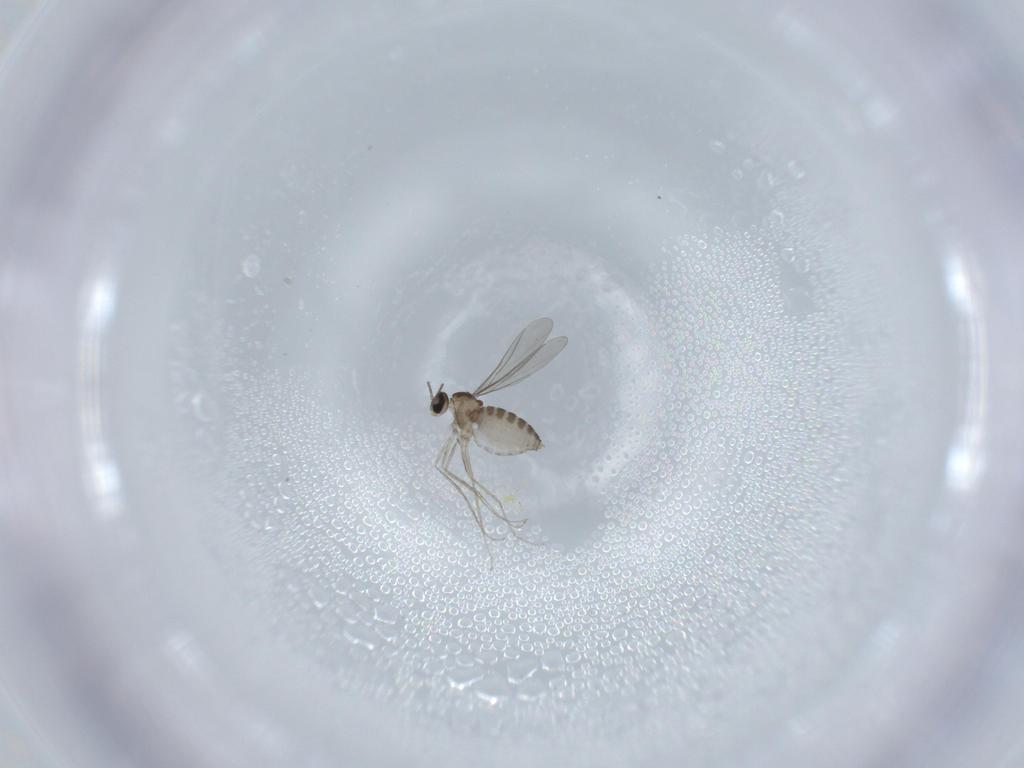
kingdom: Animalia
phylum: Arthropoda
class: Insecta
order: Diptera
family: Cecidomyiidae
